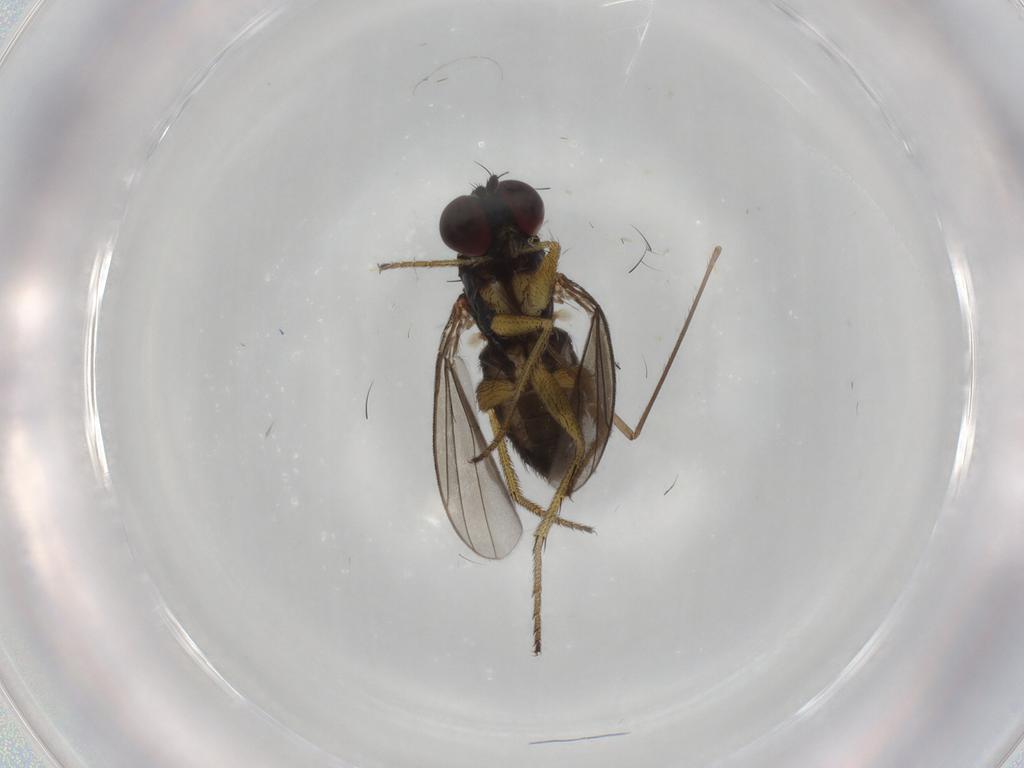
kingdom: Animalia
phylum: Arthropoda
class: Insecta
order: Diptera
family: Dolichopodidae
